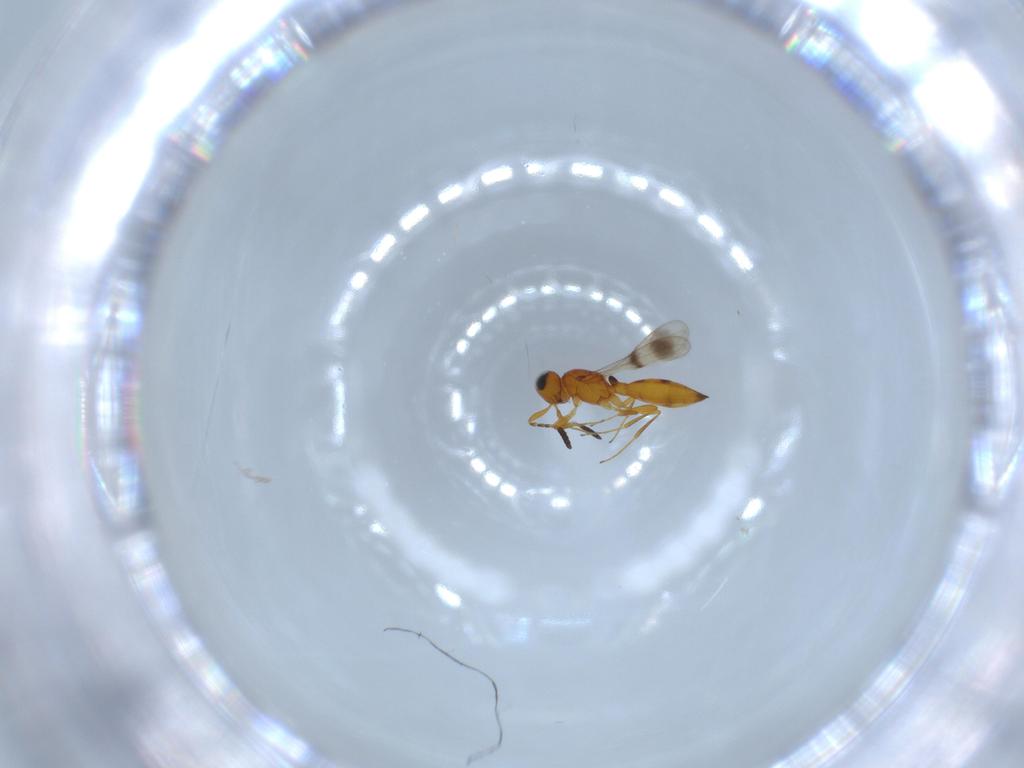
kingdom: Animalia
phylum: Arthropoda
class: Insecta
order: Hymenoptera
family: Scelionidae
